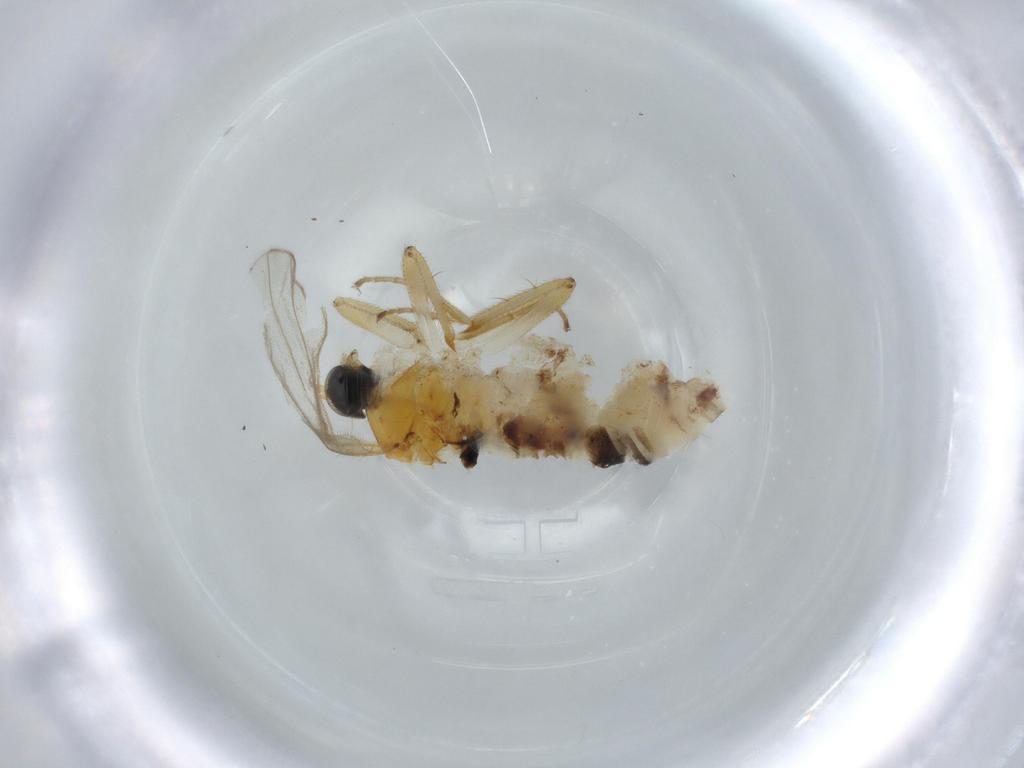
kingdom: Animalia
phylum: Arthropoda
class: Insecta
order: Diptera
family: Hybotidae
